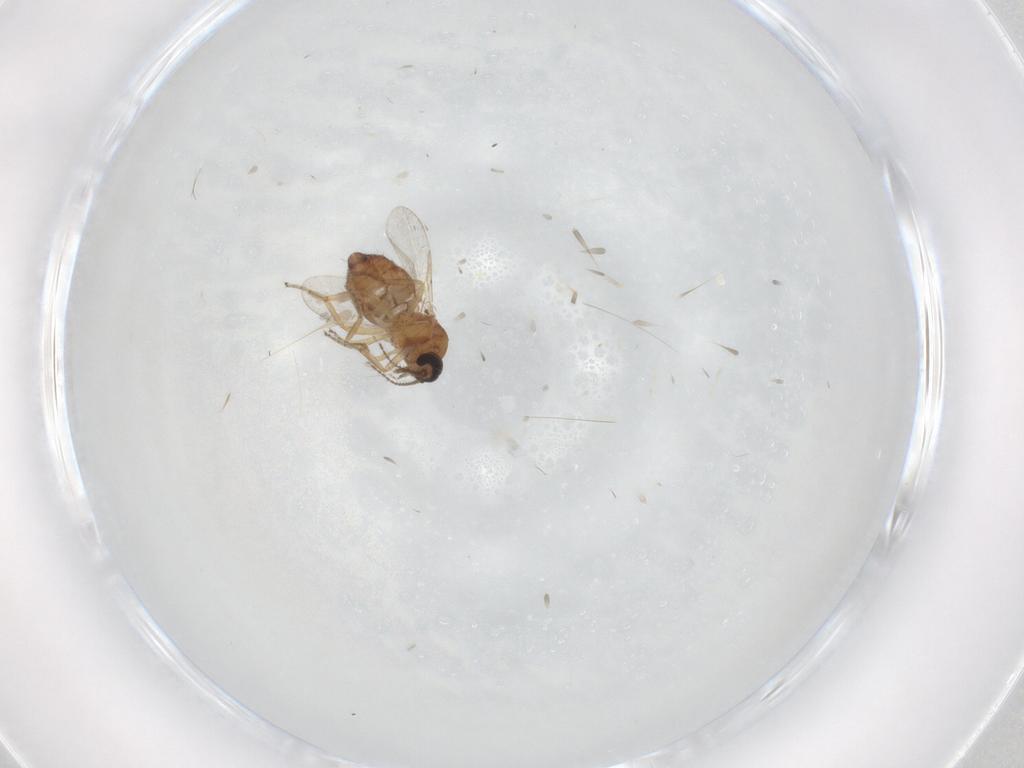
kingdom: Animalia
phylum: Arthropoda
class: Insecta
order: Diptera
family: Ceratopogonidae
